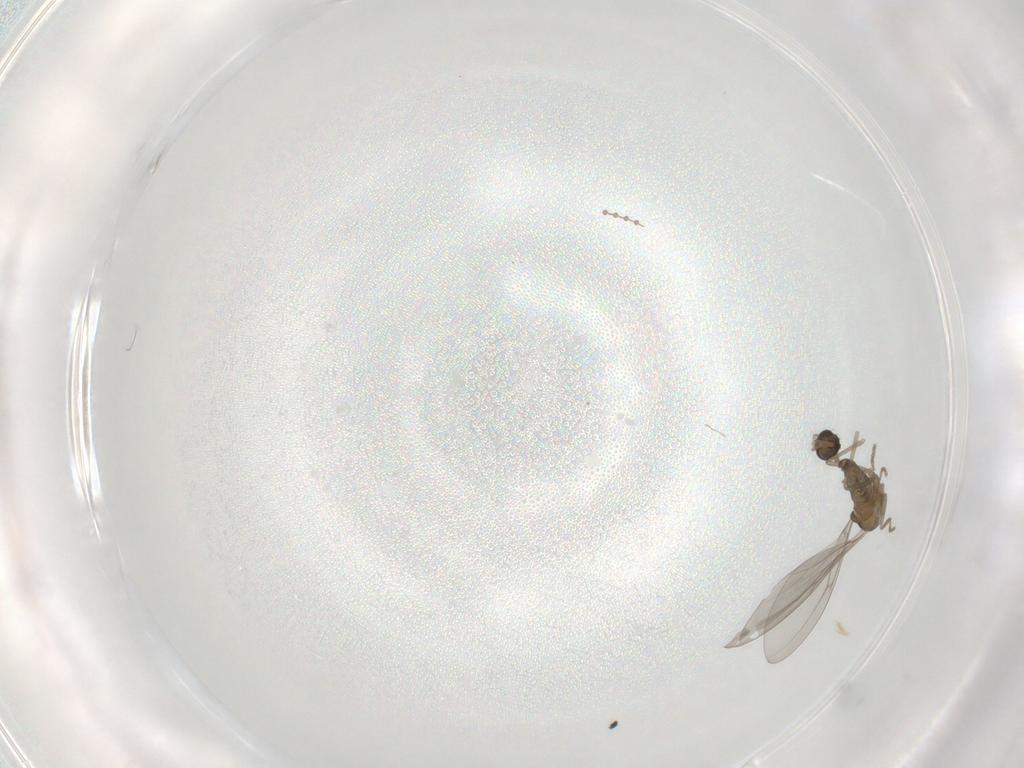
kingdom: Animalia
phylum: Arthropoda
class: Insecta
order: Diptera
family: Cecidomyiidae
